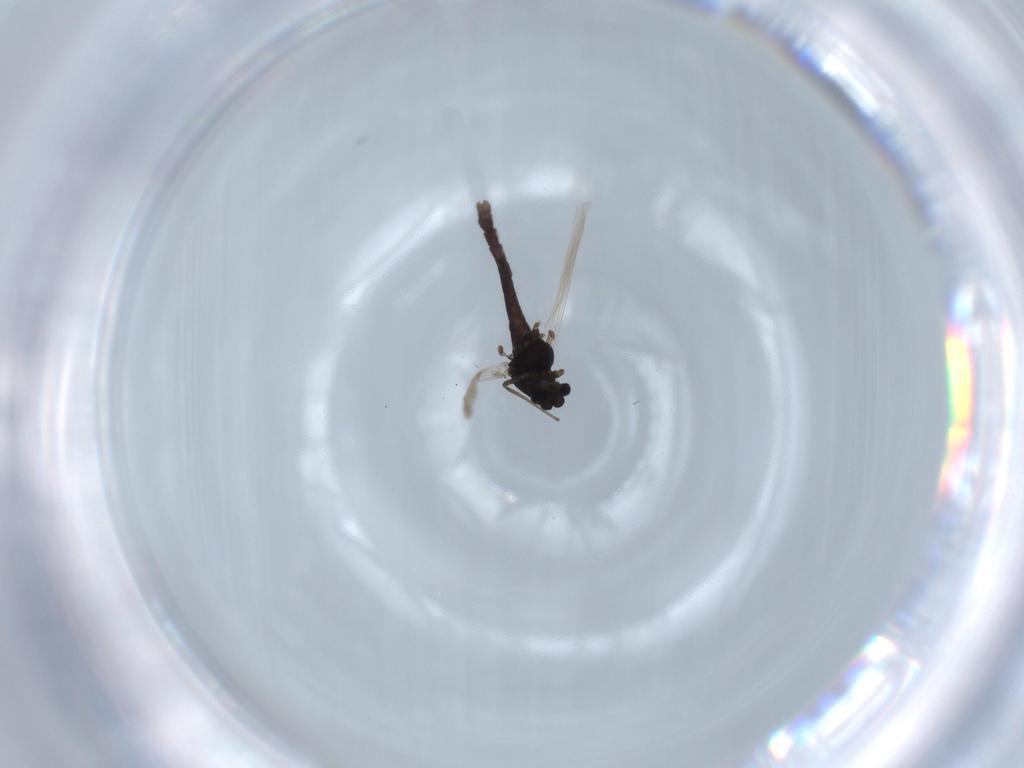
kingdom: Animalia
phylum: Arthropoda
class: Insecta
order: Diptera
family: Chironomidae
